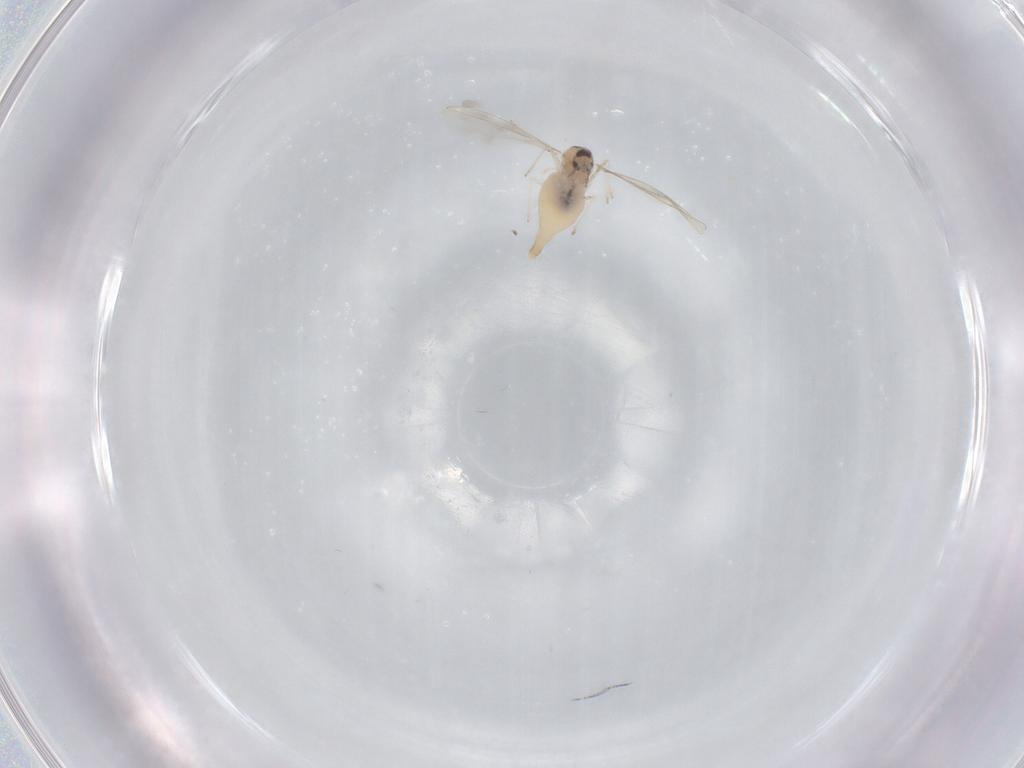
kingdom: Animalia
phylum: Arthropoda
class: Insecta
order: Diptera
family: Cecidomyiidae
